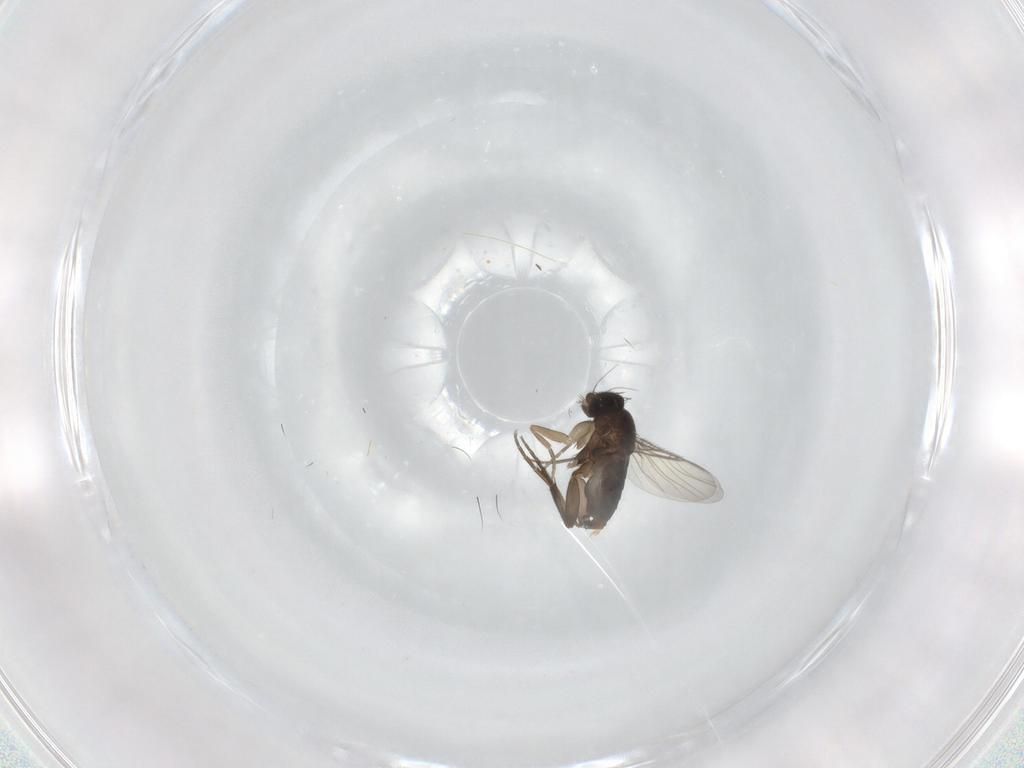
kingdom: Animalia
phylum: Arthropoda
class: Insecta
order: Diptera
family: Phoridae
